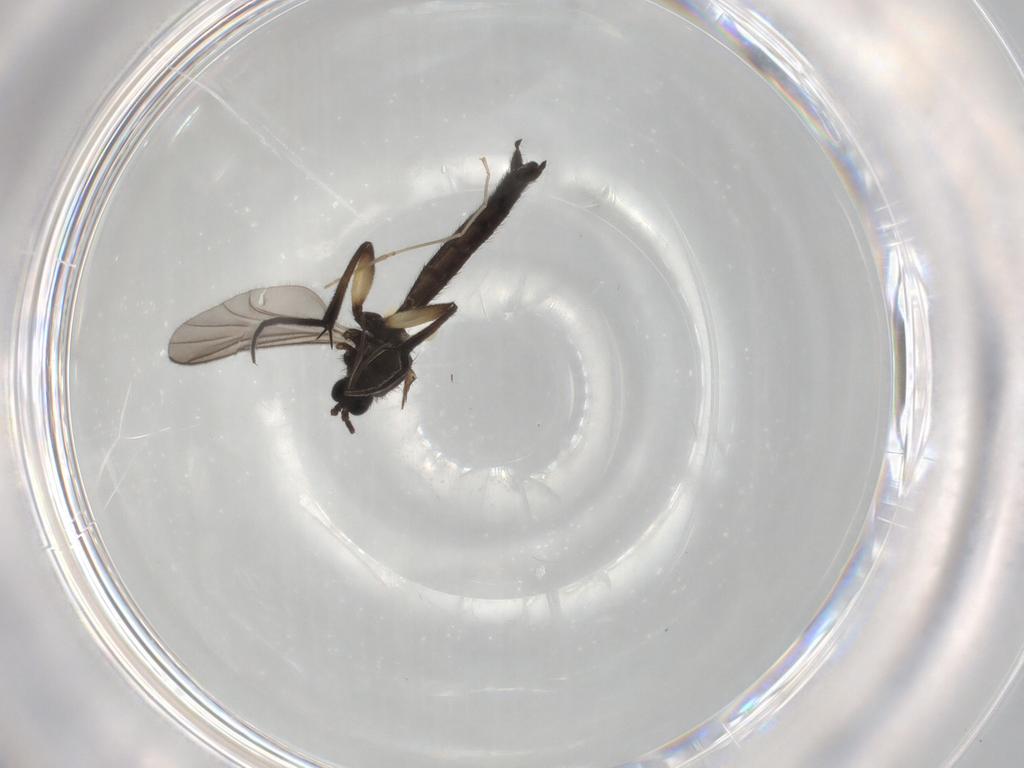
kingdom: Animalia
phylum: Arthropoda
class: Insecta
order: Diptera
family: Keroplatidae
